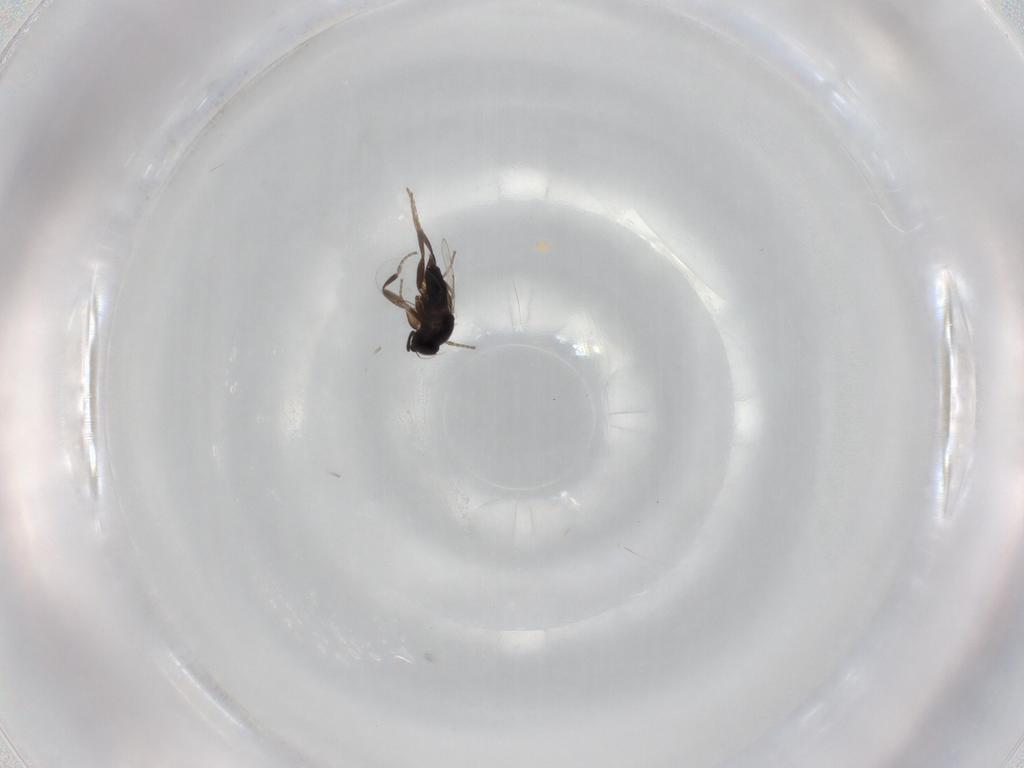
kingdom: Animalia
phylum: Arthropoda
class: Insecta
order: Diptera
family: Phoridae
